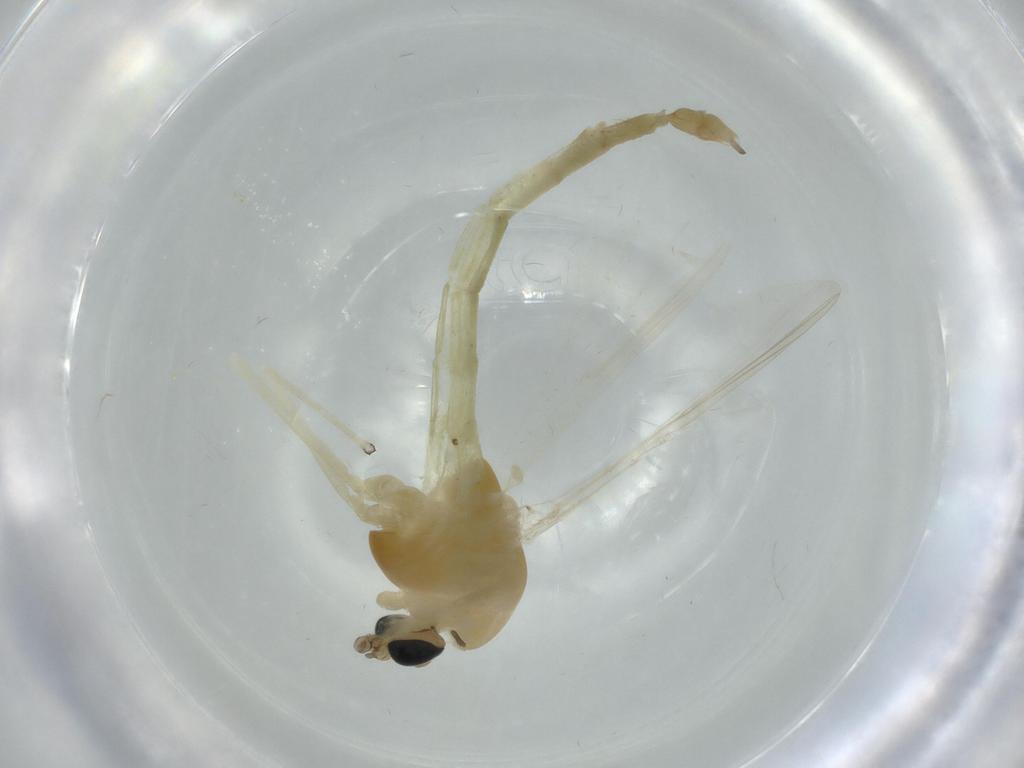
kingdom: Animalia
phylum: Arthropoda
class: Insecta
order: Diptera
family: Chironomidae
